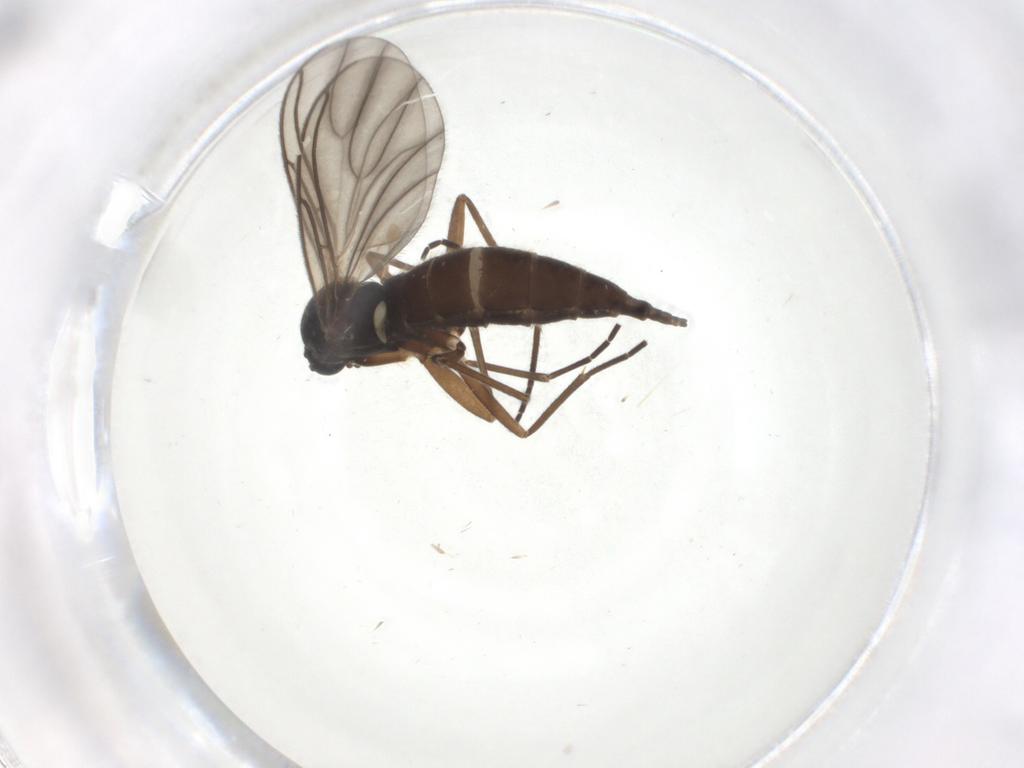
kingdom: Animalia
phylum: Arthropoda
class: Insecta
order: Diptera
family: Sciaridae
